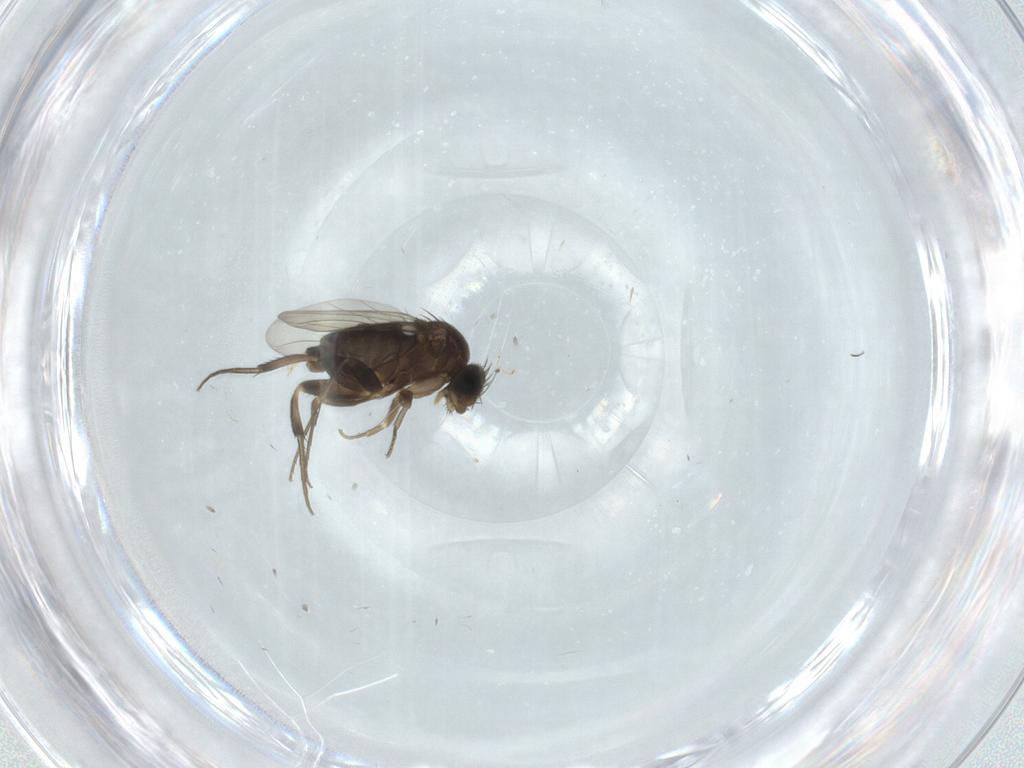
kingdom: Animalia
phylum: Arthropoda
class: Insecta
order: Diptera
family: Phoridae
